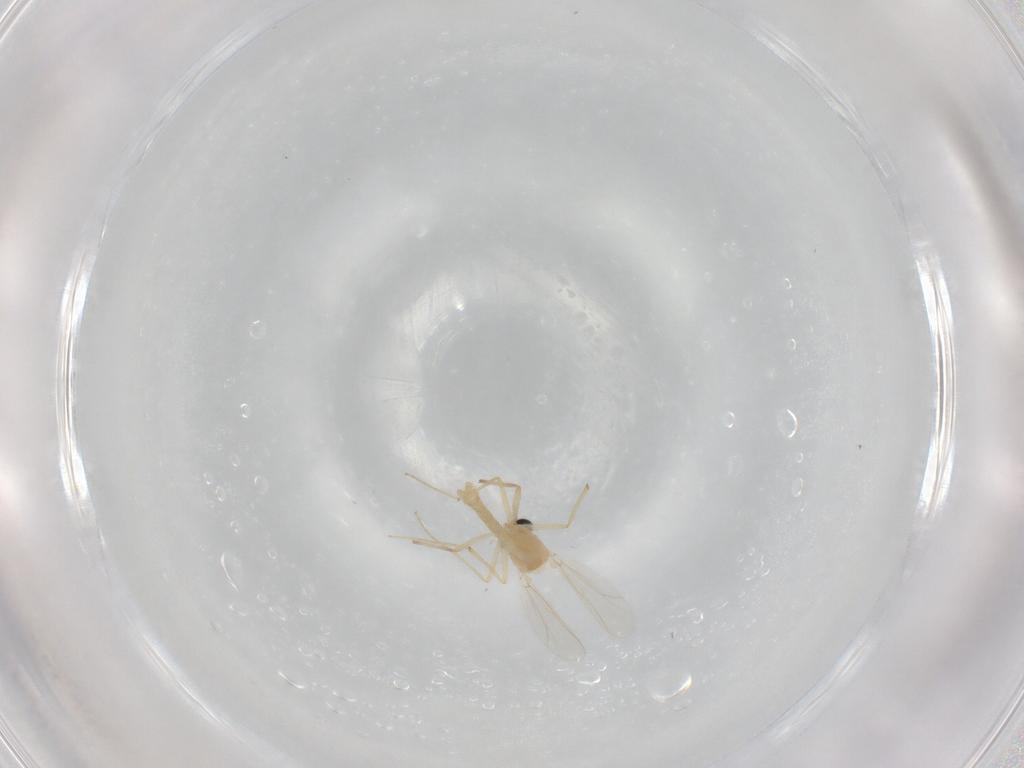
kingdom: Animalia
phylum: Arthropoda
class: Insecta
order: Diptera
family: Chironomidae
